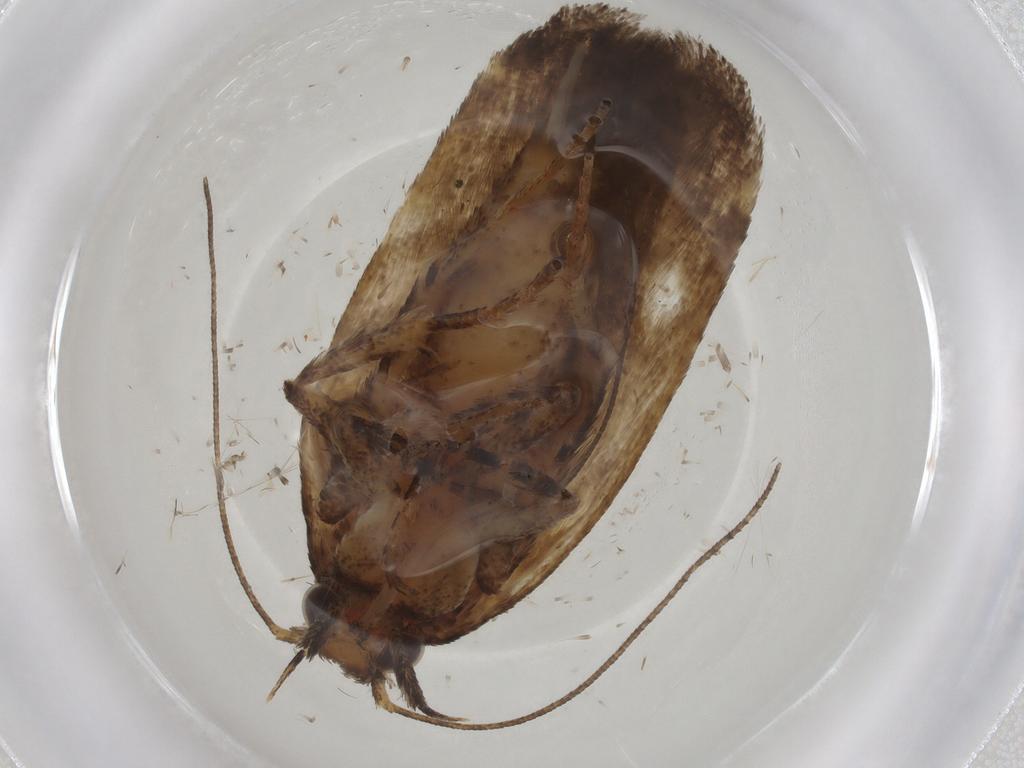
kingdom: Animalia
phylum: Arthropoda
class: Insecta
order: Lepidoptera
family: Gelechiidae
